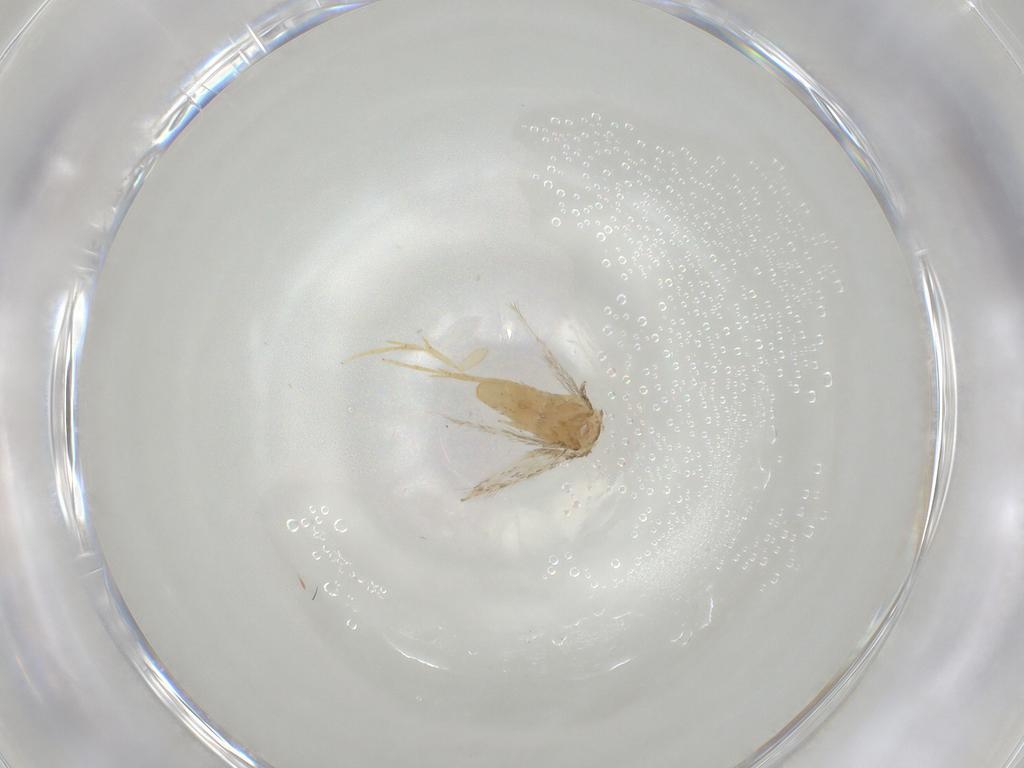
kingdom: Animalia
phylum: Arthropoda
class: Insecta
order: Lepidoptera
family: Nepticulidae
